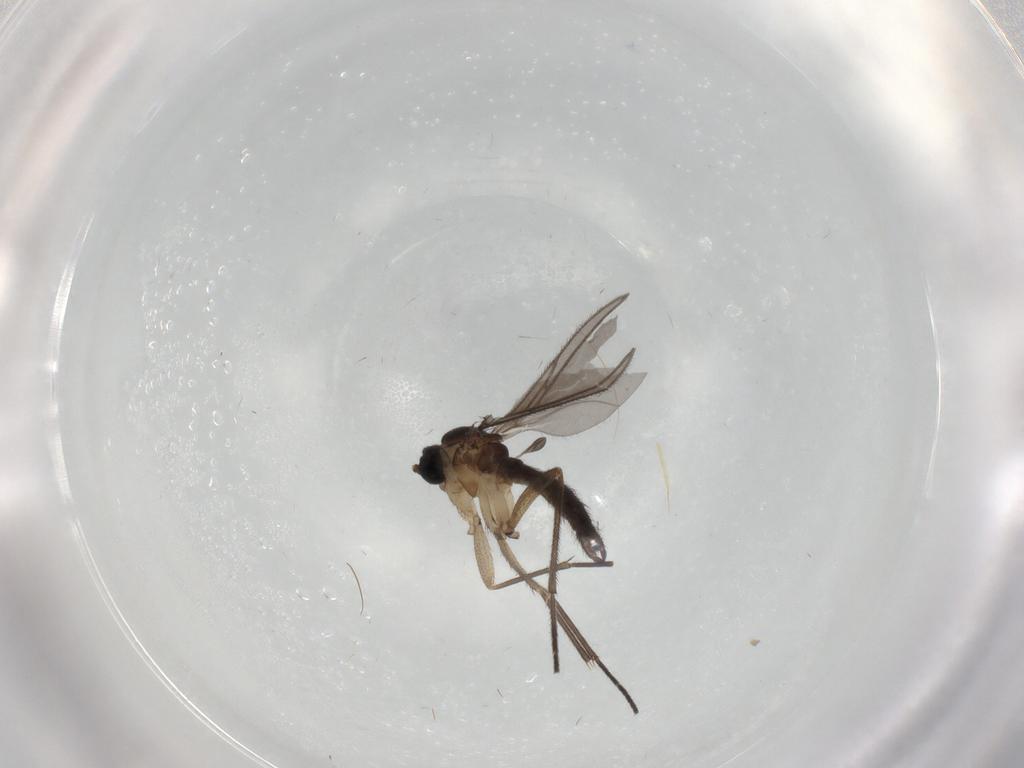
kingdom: Animalia
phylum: Arthropoda
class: Insecta
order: Diptera
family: Sciaridae
